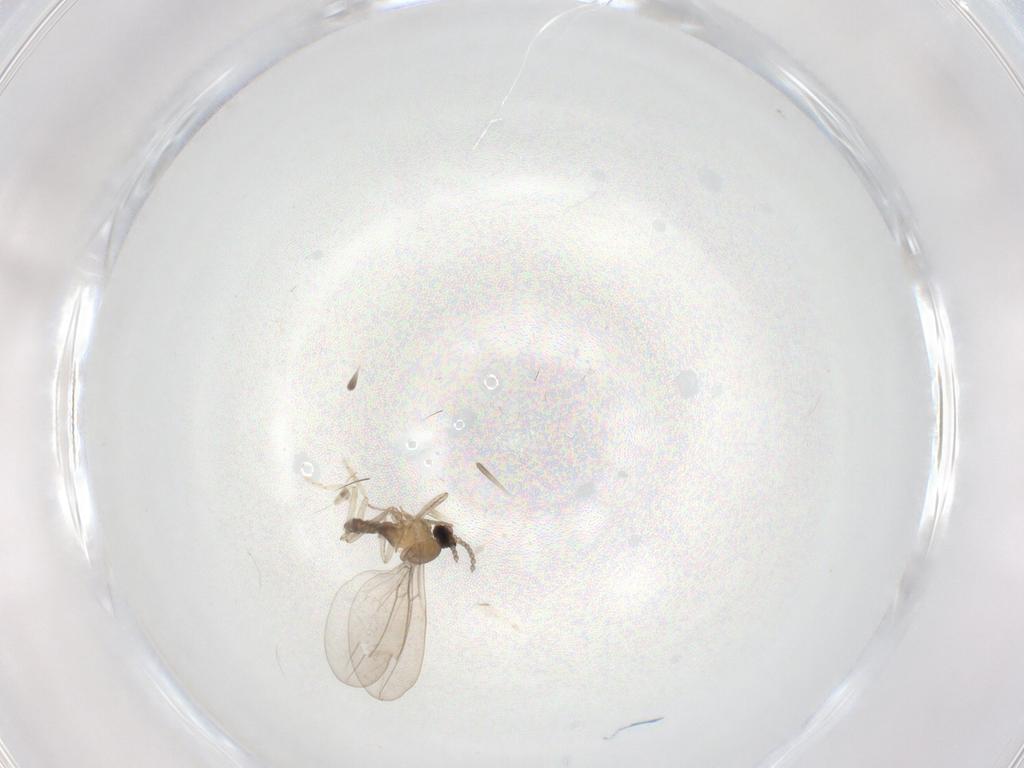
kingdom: Animalia
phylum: Arthropoda
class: Insecta
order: Diptera
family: Cecidomyiidae
